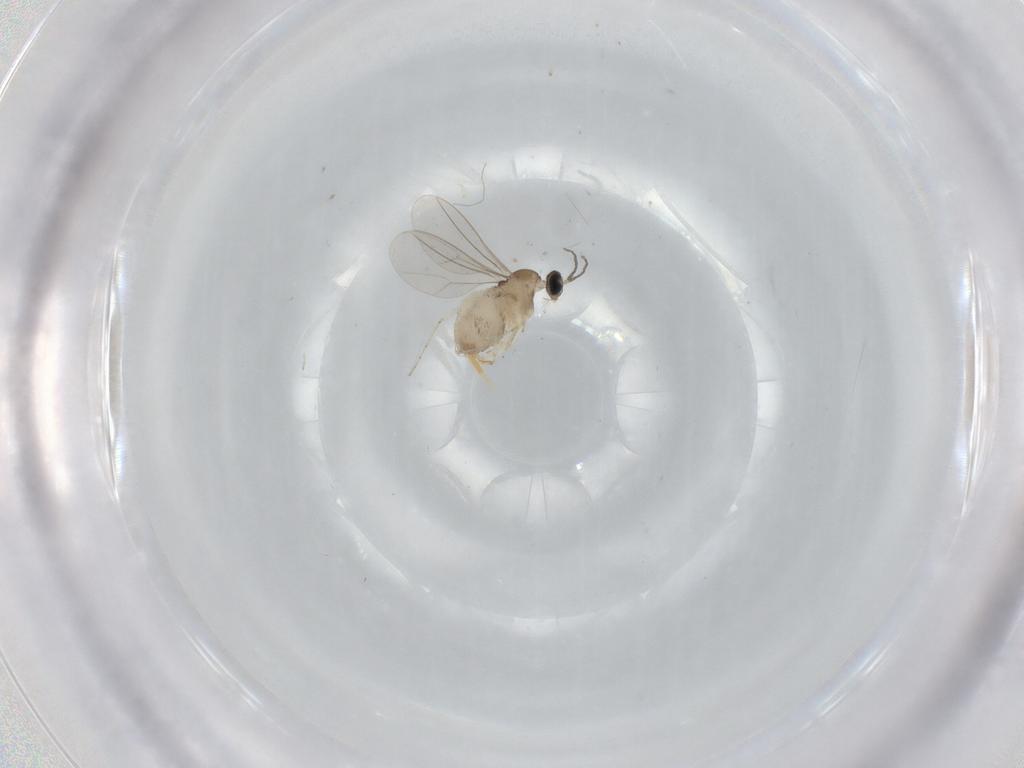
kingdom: Animalia
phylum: Arthropoda
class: Insecta
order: Diptera
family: Cecidomyiidae
